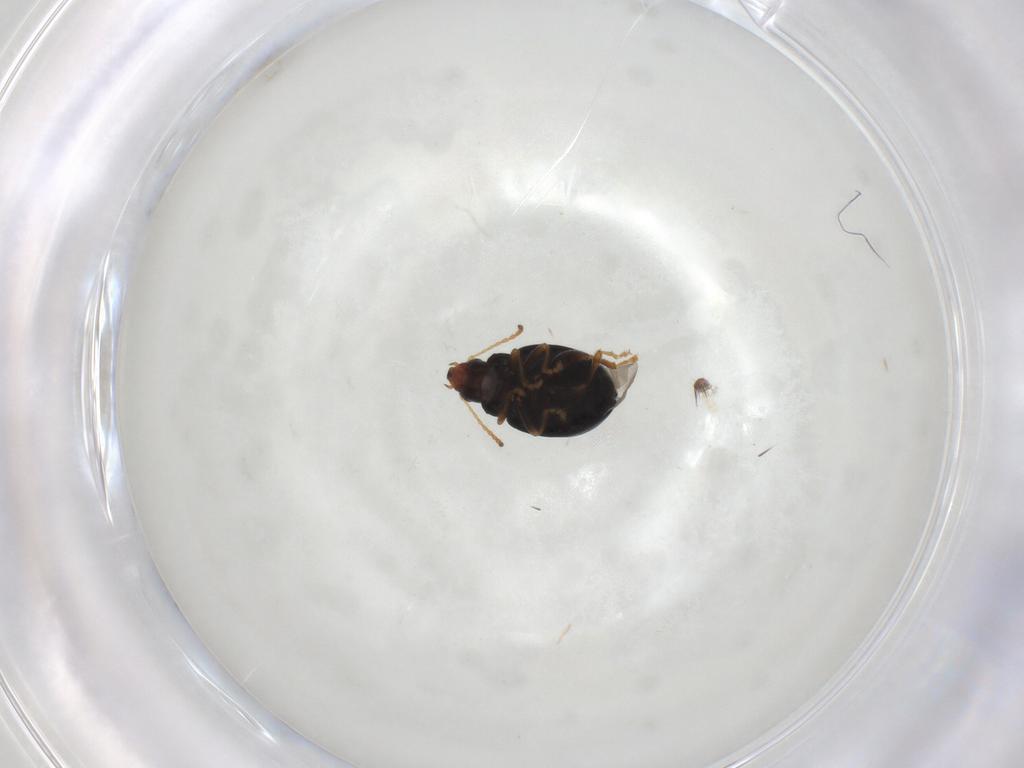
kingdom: Animalia
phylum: Arthropoda
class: Insecta
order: Coleoptera
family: Chrysomelidae
